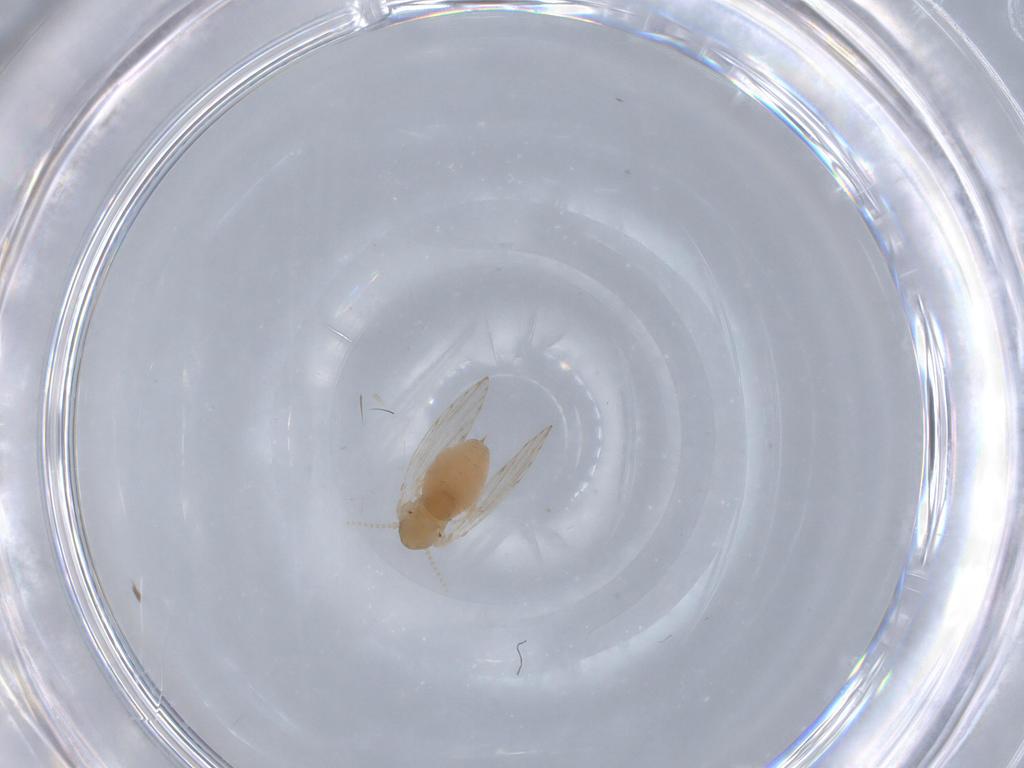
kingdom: Animalia
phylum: Arthropoda
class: Insecta
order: Diptera
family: Psychodidae
